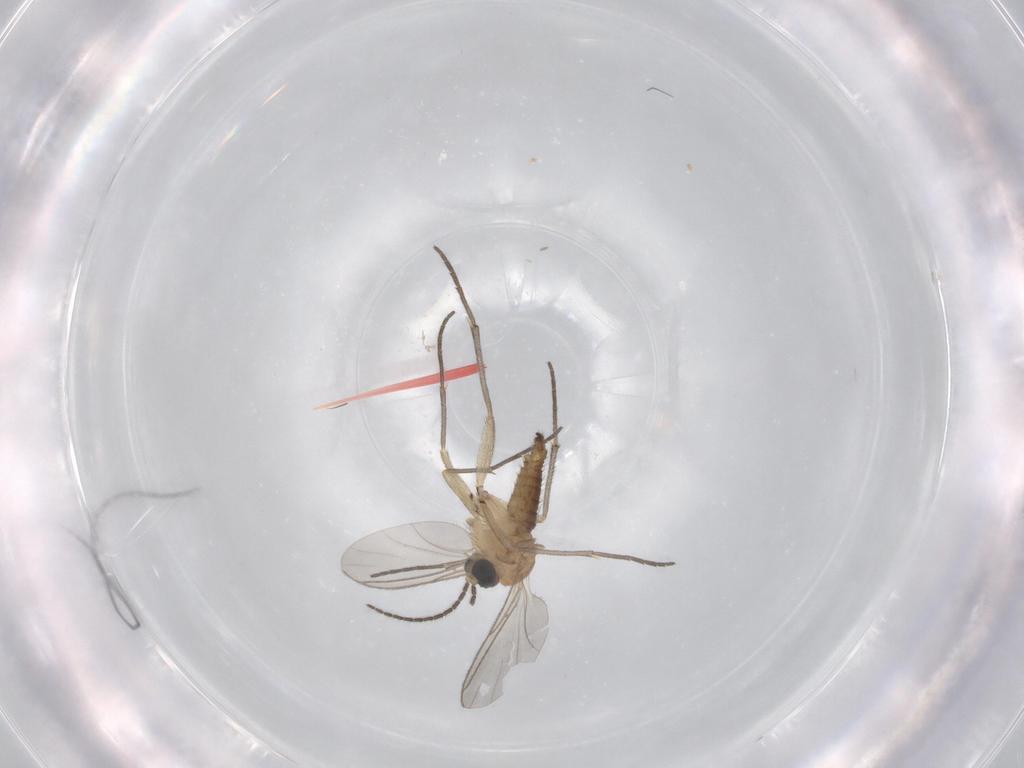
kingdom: Animalia
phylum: Arthropoda
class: Insecta
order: Diptera
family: Sciaridae
